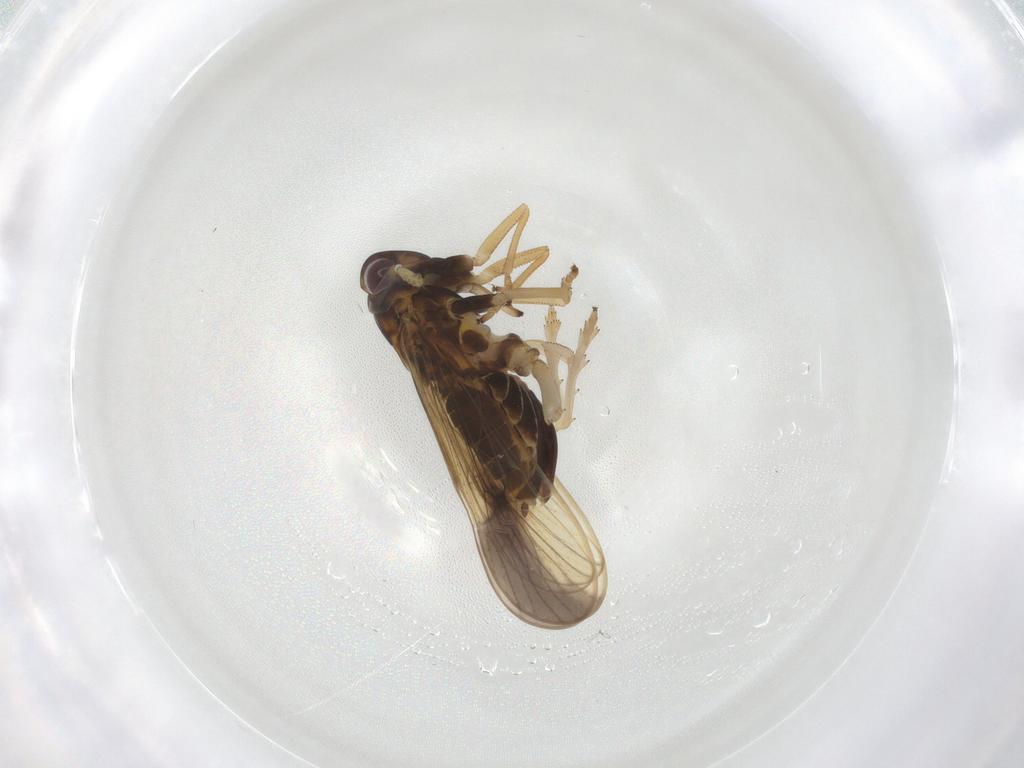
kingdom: Animalia
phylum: Arthropoda
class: Insecta
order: Hemiptera
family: Delphacidae
